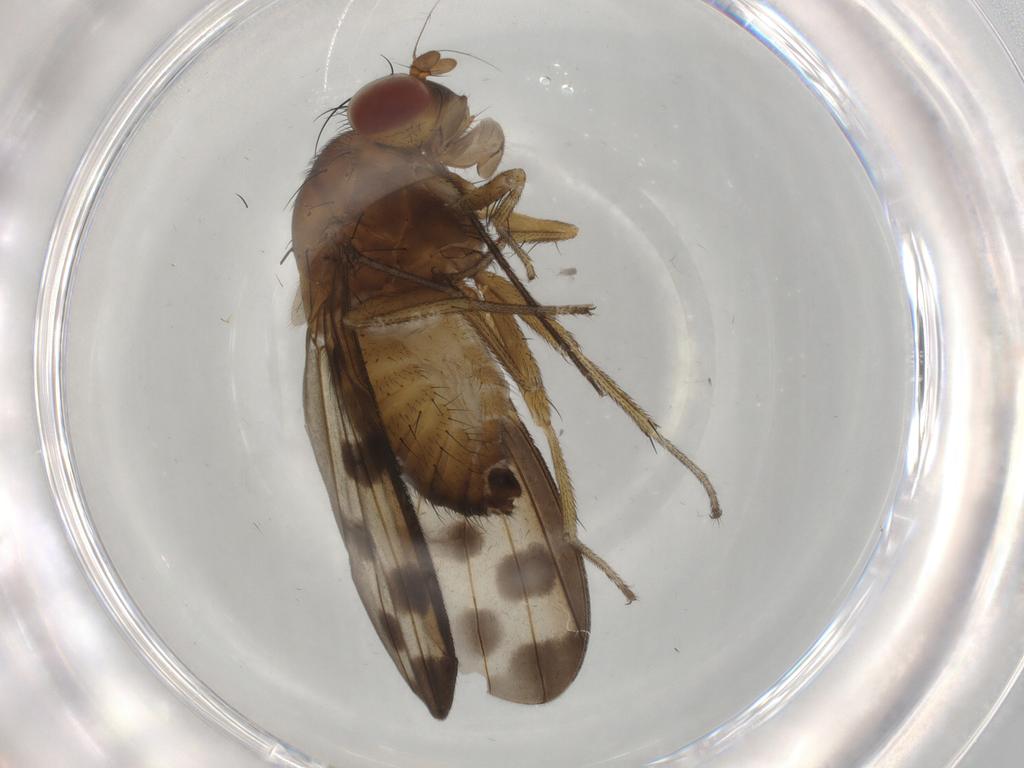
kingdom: Animalia
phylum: Arthropoda
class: Insecta
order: Diptera
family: Chironomidae
